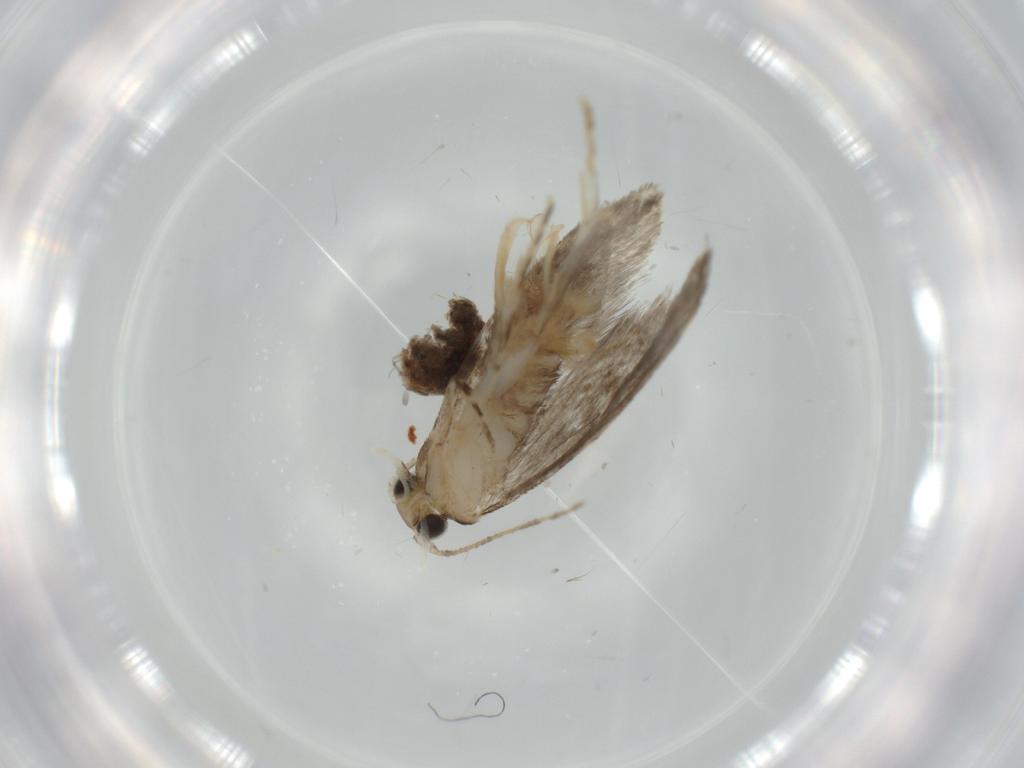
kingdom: Animalia
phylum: Arthropoda
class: Insecta
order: Lepidoptera
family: Tineidae
